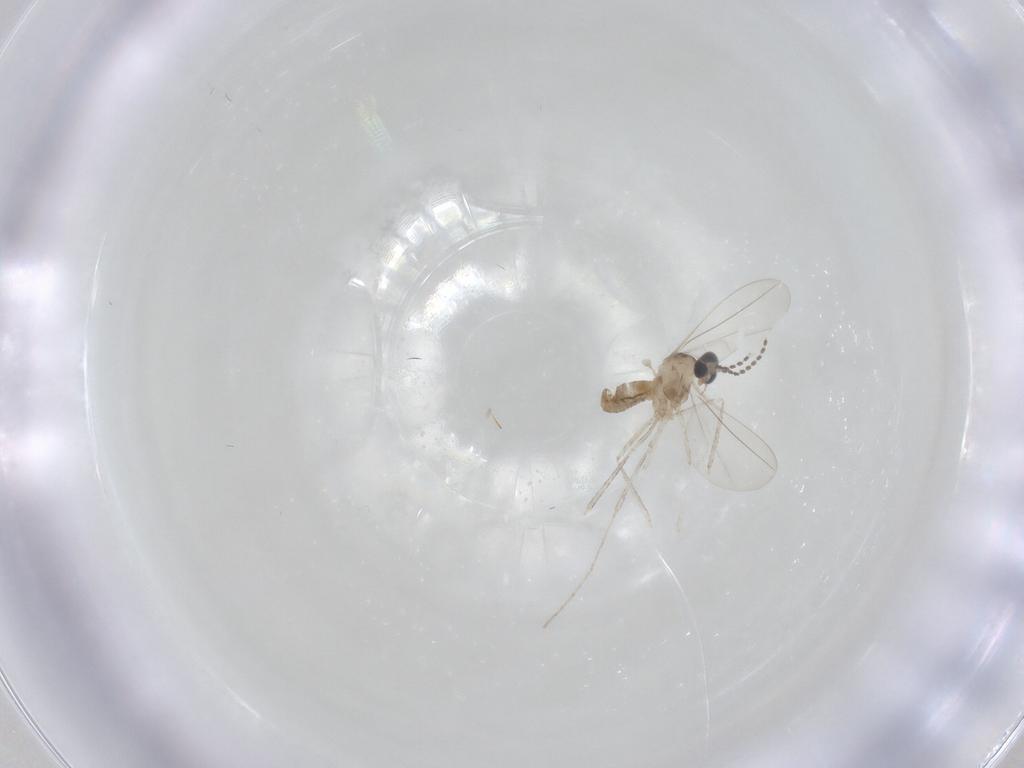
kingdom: Animalia
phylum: Arthropoda
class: Insecta
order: Diptera
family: Cecidomyiidae
